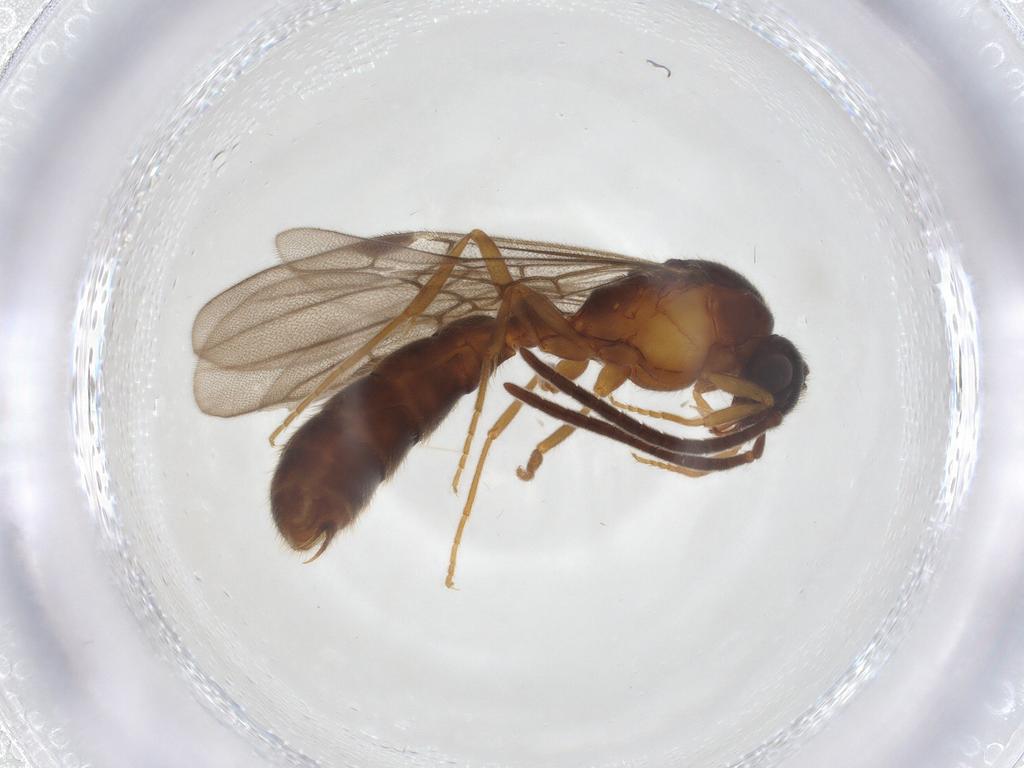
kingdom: Animalia
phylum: Arthropoda
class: Insecta
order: Hymenoptera
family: Formicidae
